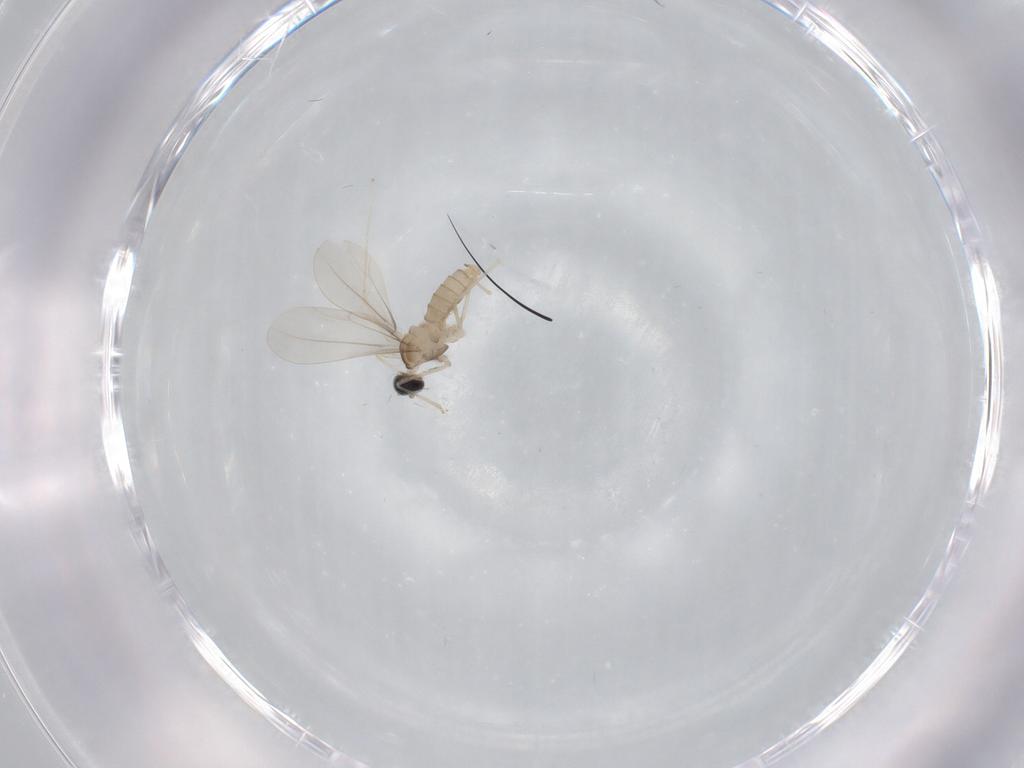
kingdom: Animalia
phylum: Arthropoda
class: Insecta
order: Diptera
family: Cecidomyiidae
